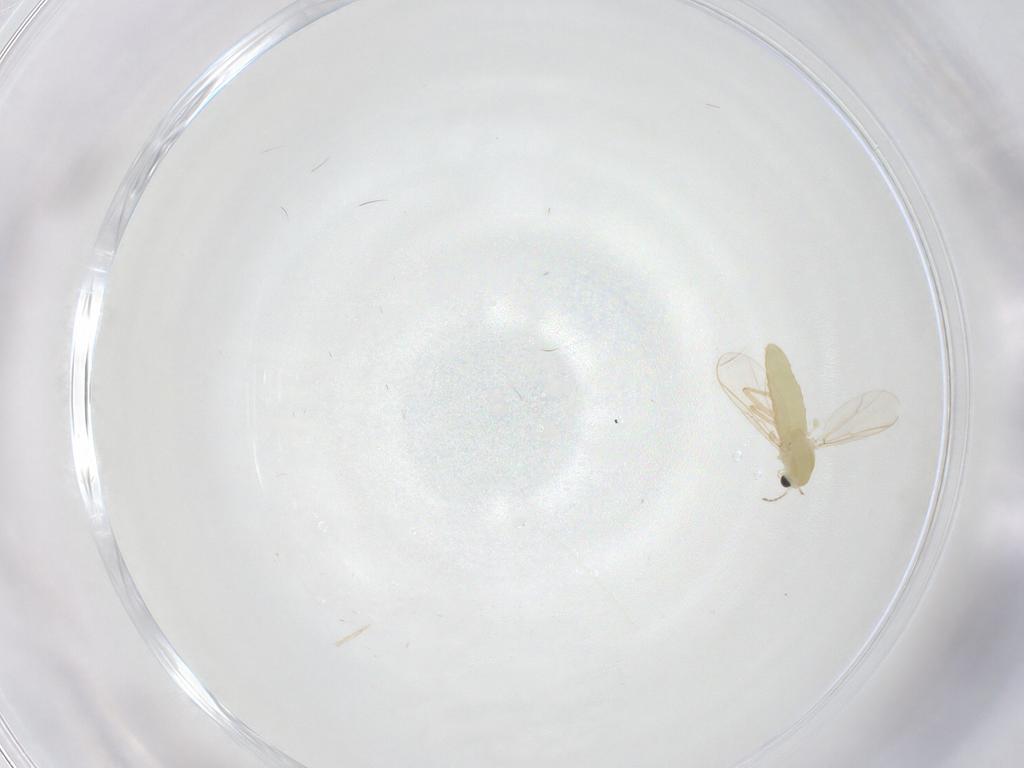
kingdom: Animalia
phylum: Arthropoda
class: Insecta
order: Diptera
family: Chironomidae
